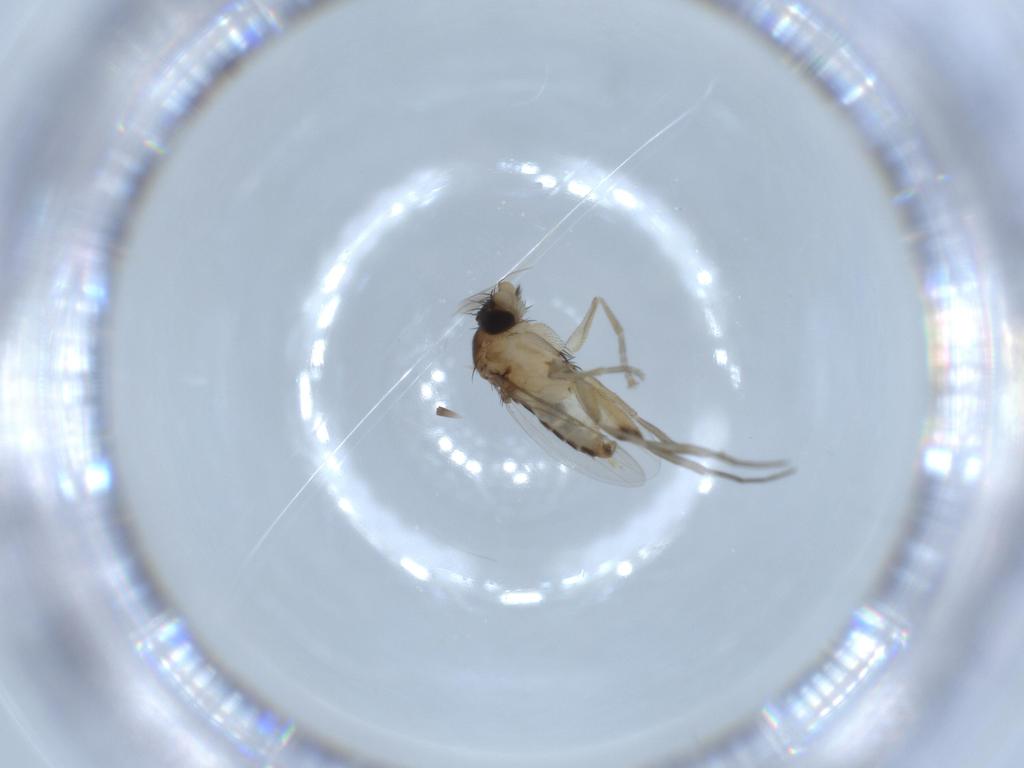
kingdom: Animalia
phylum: Arthropoda
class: Insecta
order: Diptera
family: Phoridae
